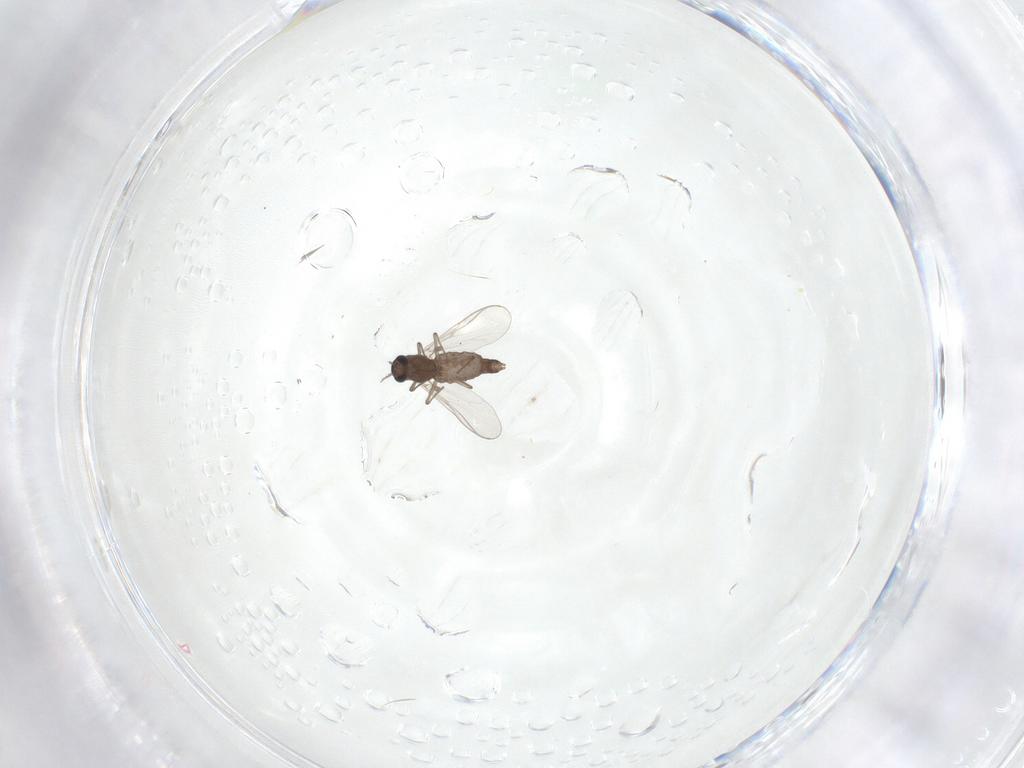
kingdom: Animalia
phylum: Arthropoda
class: Insecta
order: Diptera
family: Chironomidae
